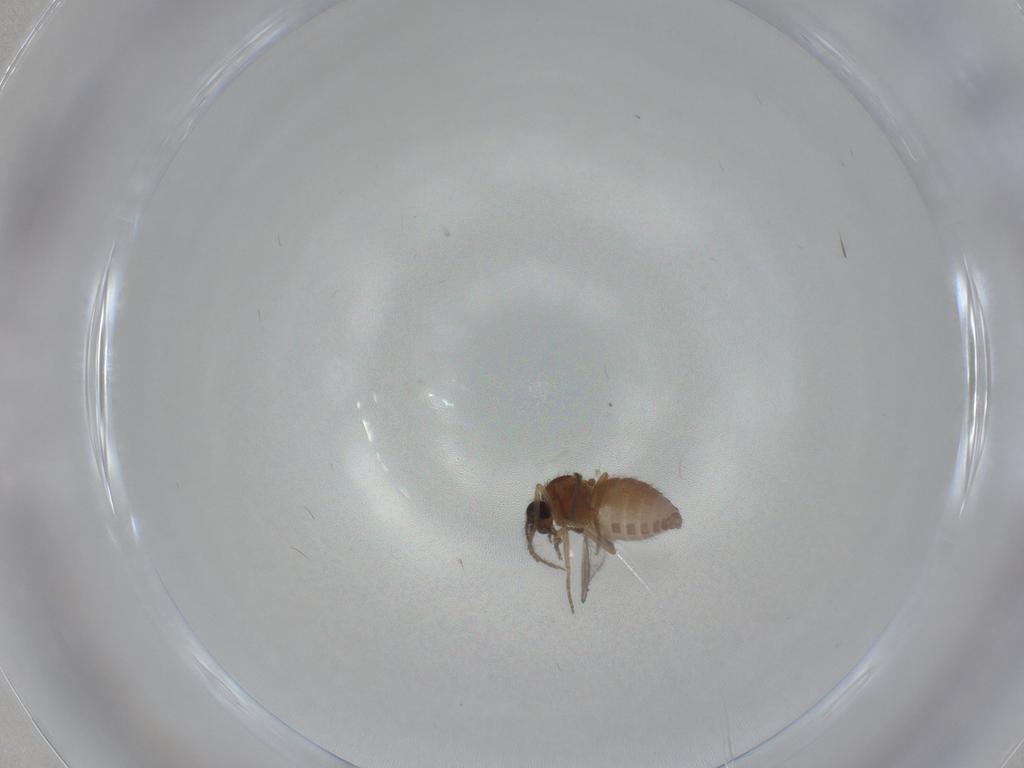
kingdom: Animalia
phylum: Arthropoda
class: Insecta
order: Diptera
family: Ceratopogonidae
